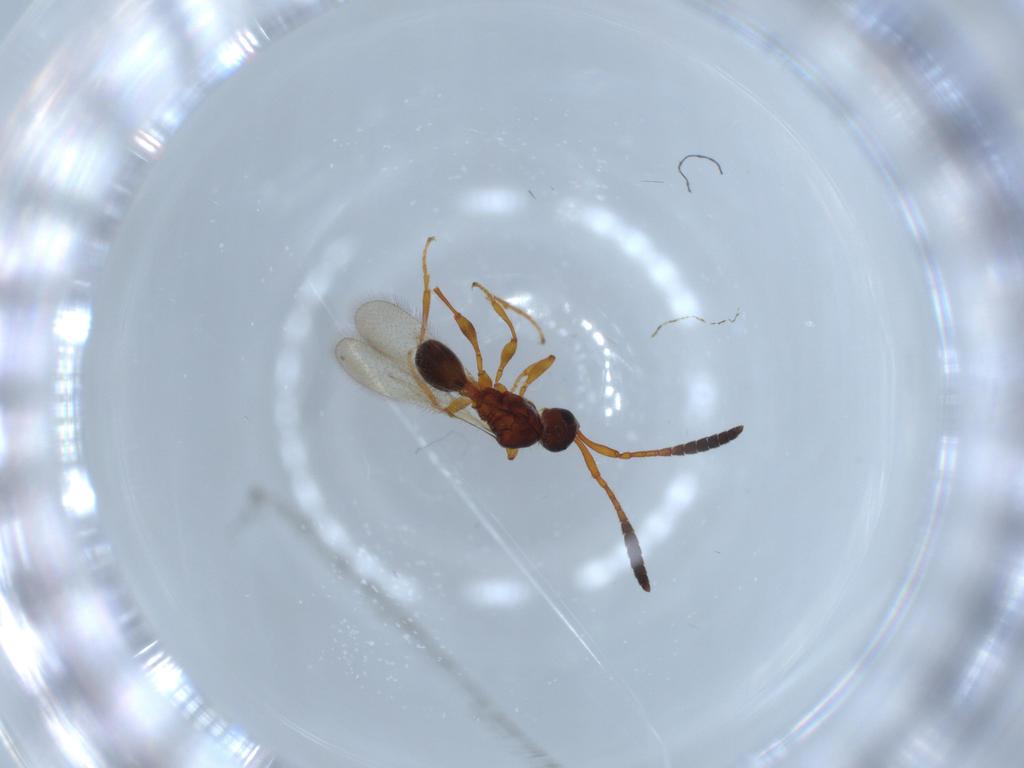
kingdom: Animalia
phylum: Arthropoda
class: Insecta
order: Hymenoptera
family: Diapriidae
